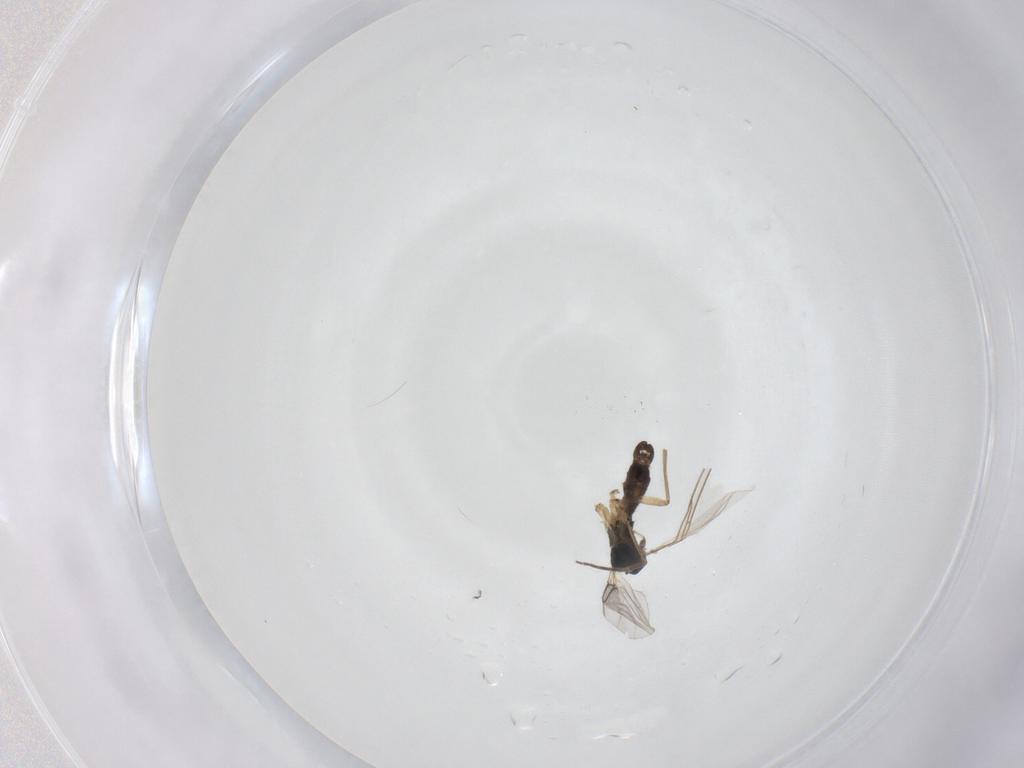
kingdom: Animalia
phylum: Arthropoda
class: Insecta
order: Diptera
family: Sciaridae
